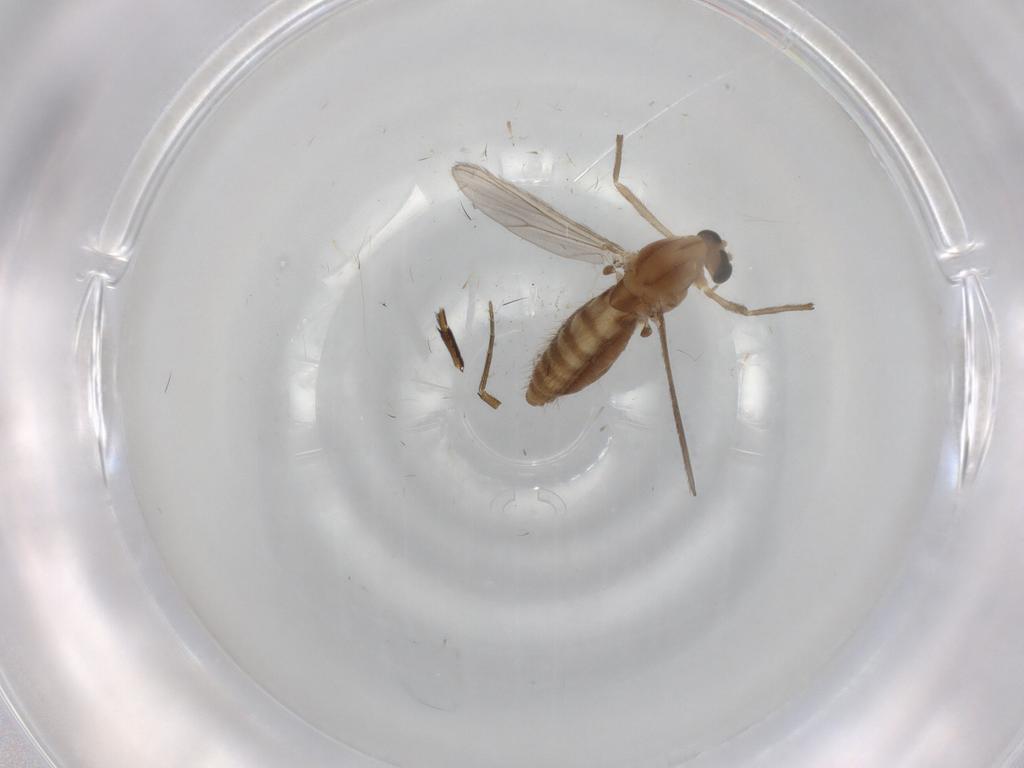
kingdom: Animalia
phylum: Arthropoda
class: Insecta
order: Diptera
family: Chironomidae
